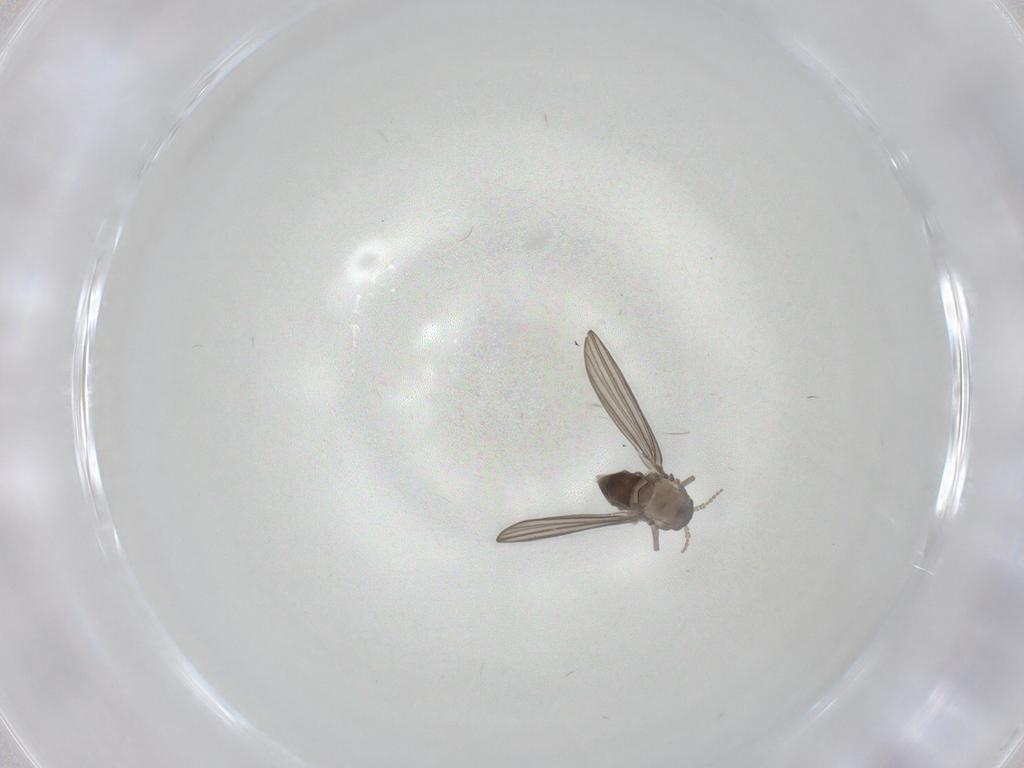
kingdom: Animalia
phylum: Arthropoda
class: Insecta
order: Diptera
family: Psychodidae
